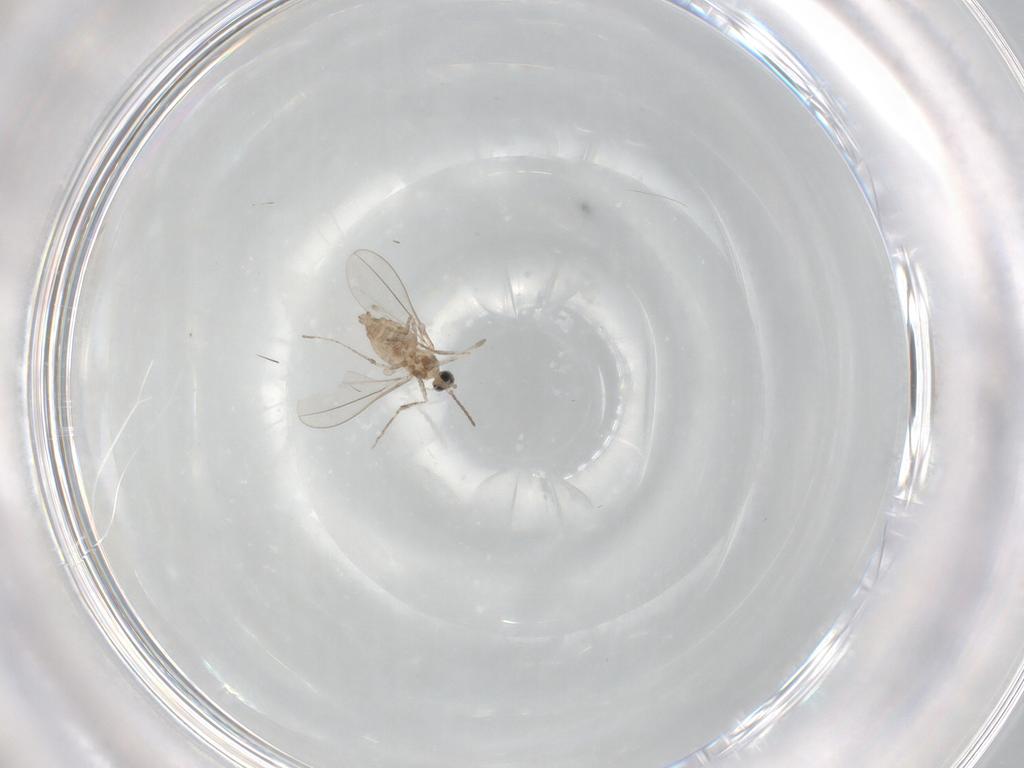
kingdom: Animalia
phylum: Arthropoda
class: Insecta
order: Diptera
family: Cecidomyiidae
